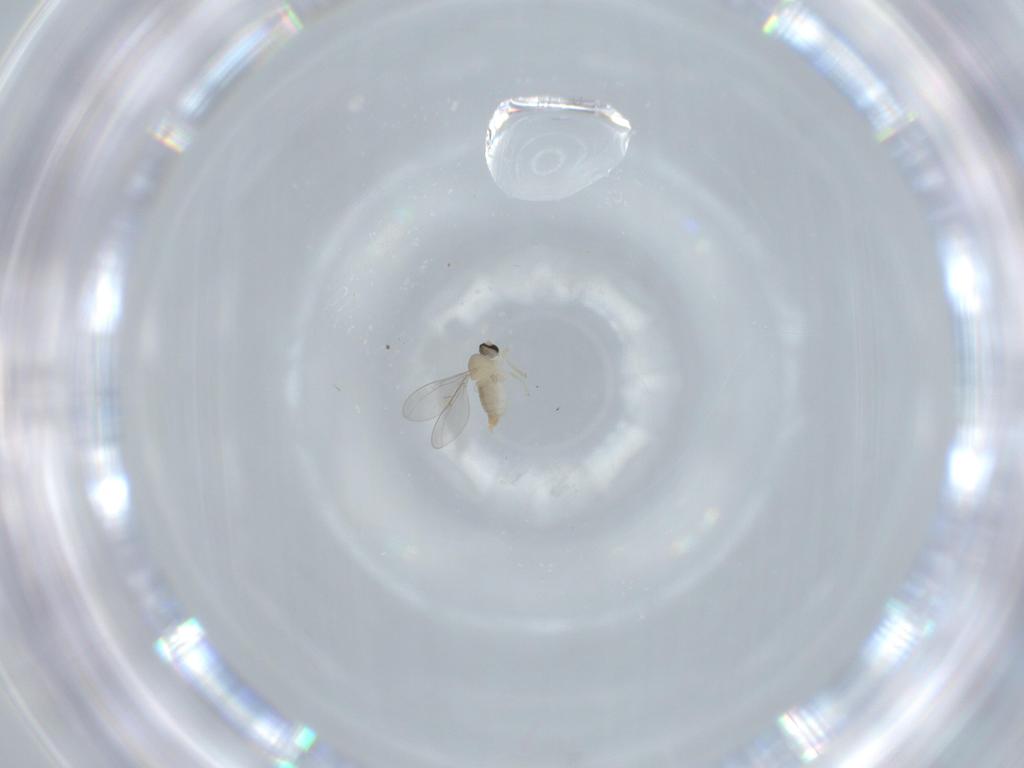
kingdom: Animalia
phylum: Arthropoda
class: Insecta
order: Diptera
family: Cecidomyiidae
